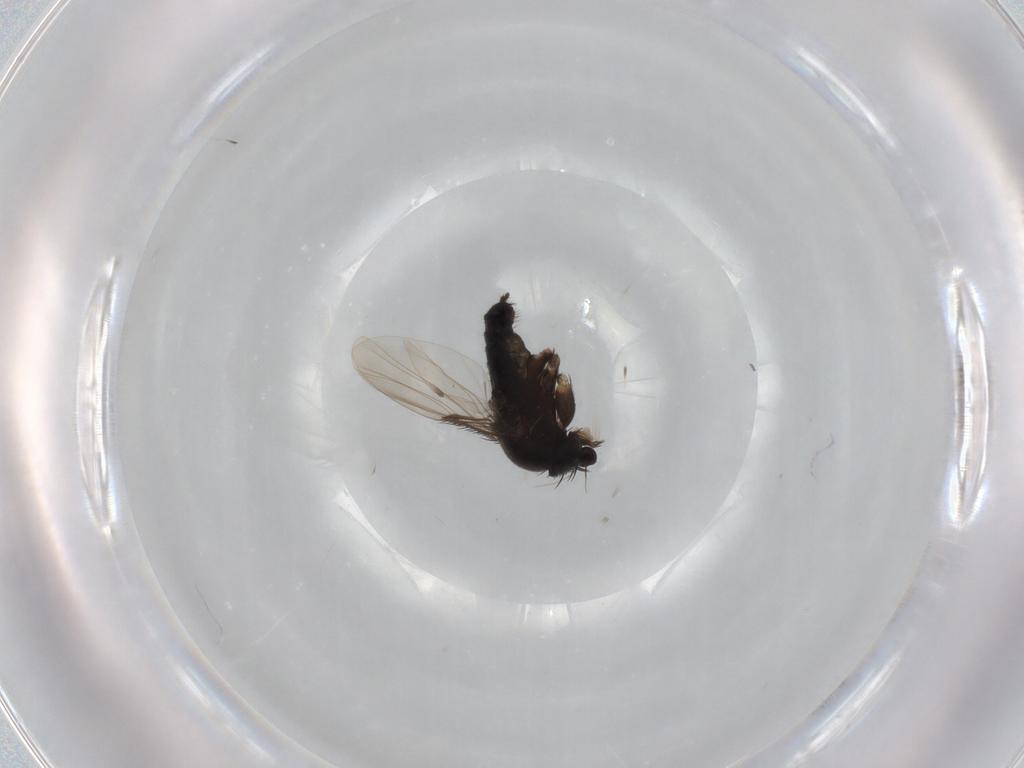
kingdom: Animalia
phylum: Arthropoda
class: Insecta
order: Diptera
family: Phoridae
